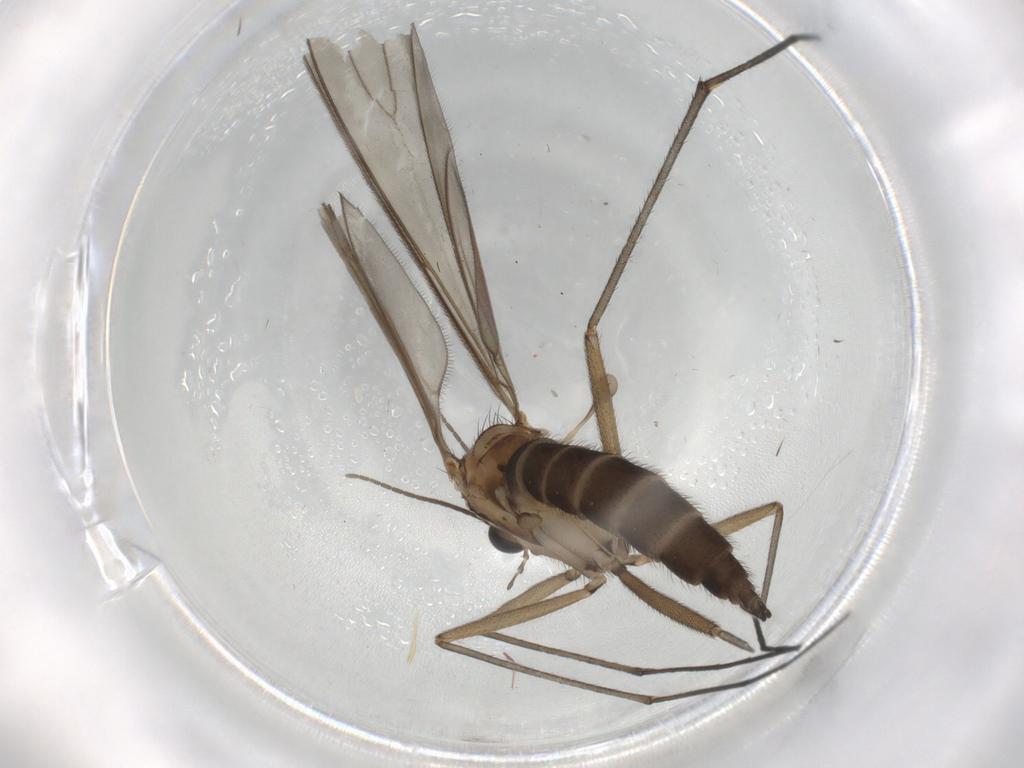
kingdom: Animalia
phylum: Arthropoda
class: Insecta
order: Diptera
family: Sciaridae
